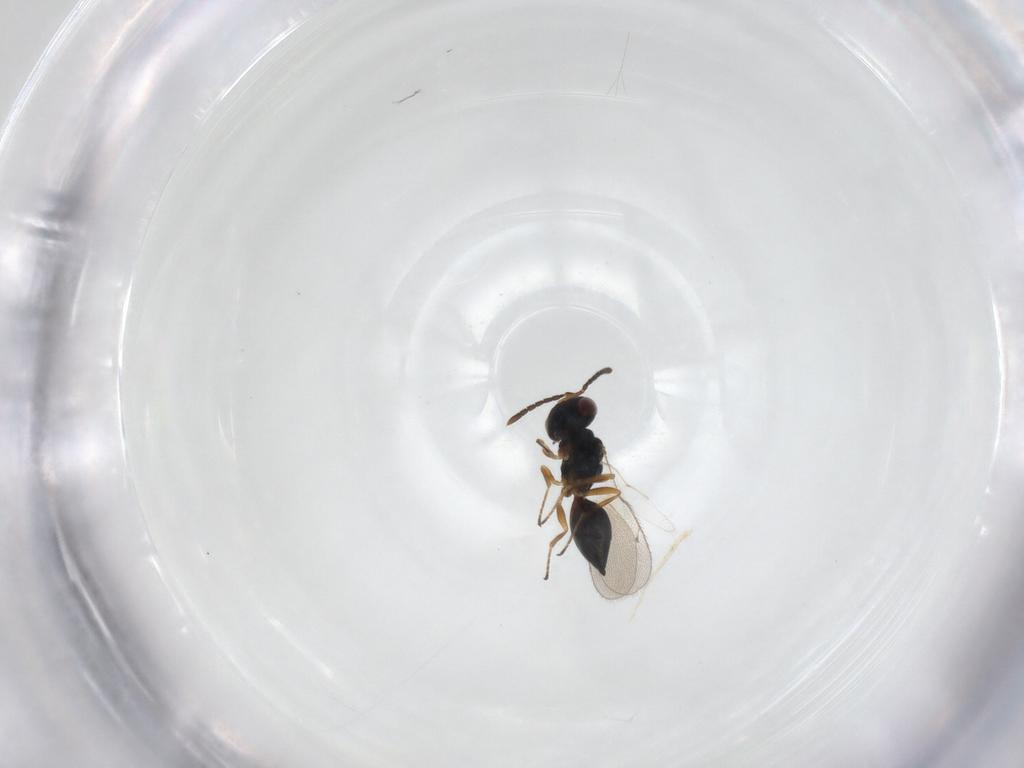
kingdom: Animalia
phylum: Arthropoda
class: Insecta
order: Hymenoptera
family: Pteromalidae
